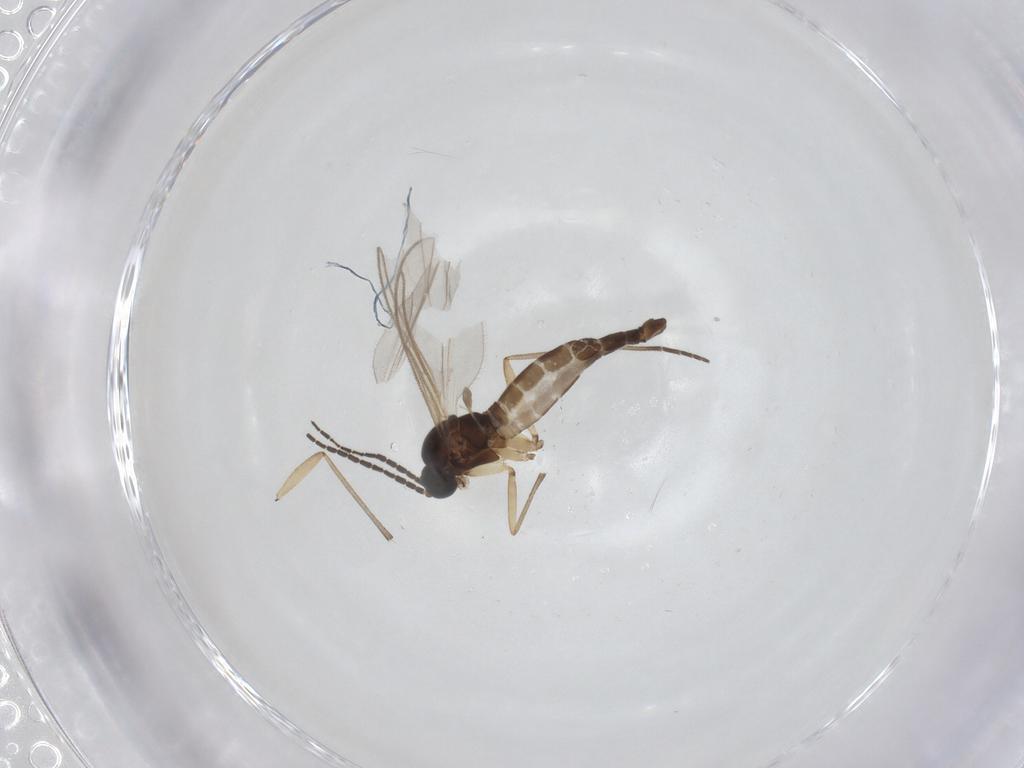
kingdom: Animalia
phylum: Arthropoda
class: Insecta
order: Diptera
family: Sciaridae
